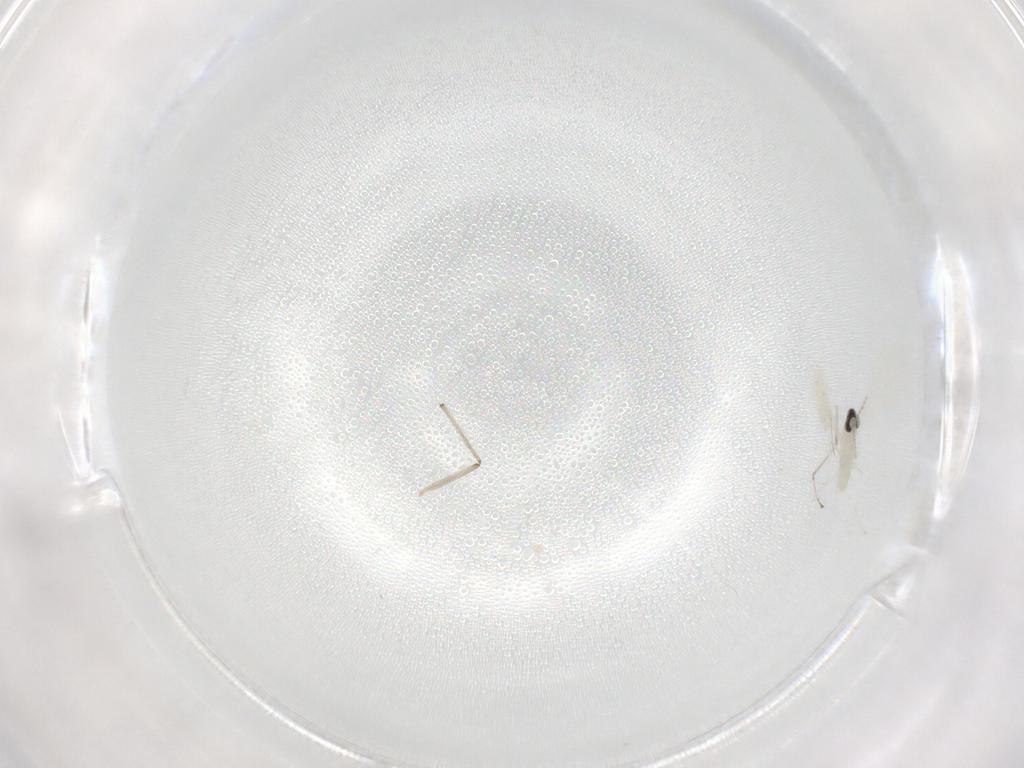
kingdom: Animalia
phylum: Arthropoda
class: Insecta
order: Diptera
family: Cecidomyiidae
